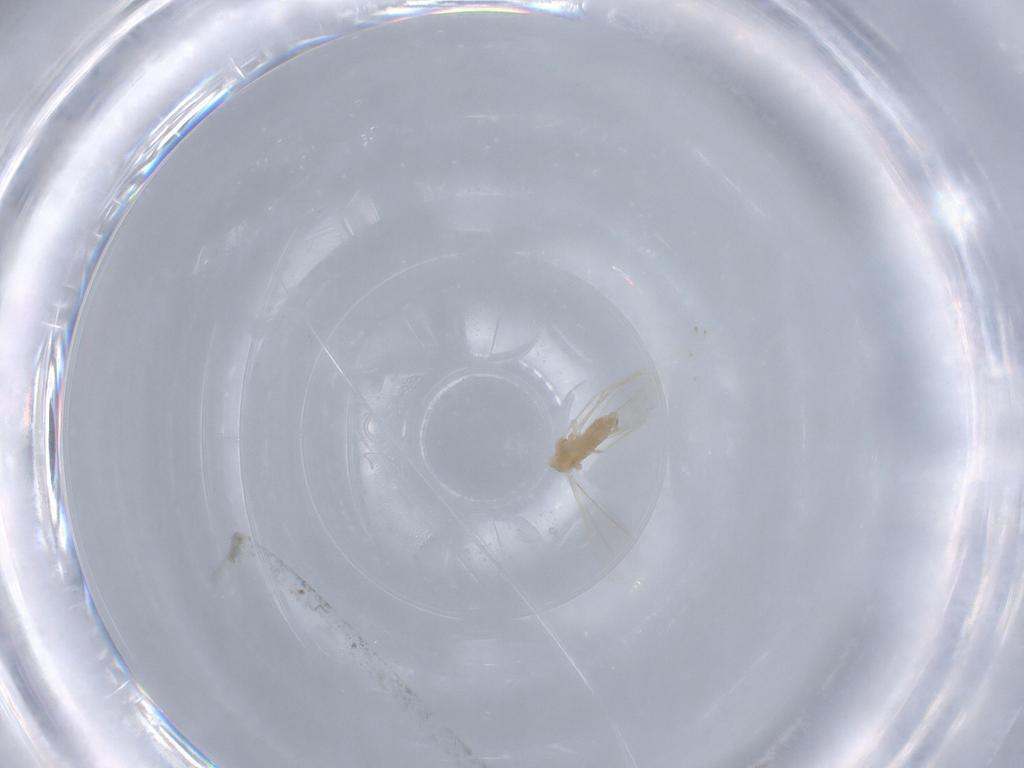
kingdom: Animalia
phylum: Arthropoda
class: Insecta
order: Diptera
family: Cecidomyiidae
